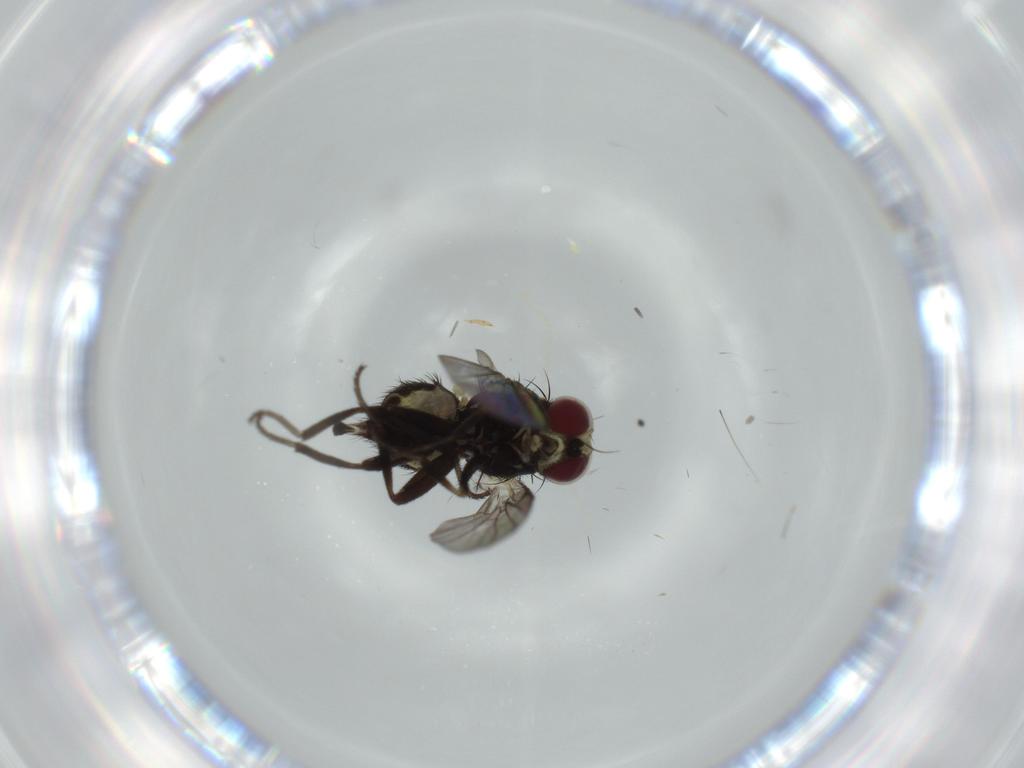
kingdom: Animalia
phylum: Arthropoda
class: Insecta
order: Diptera
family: Agromyzidae
